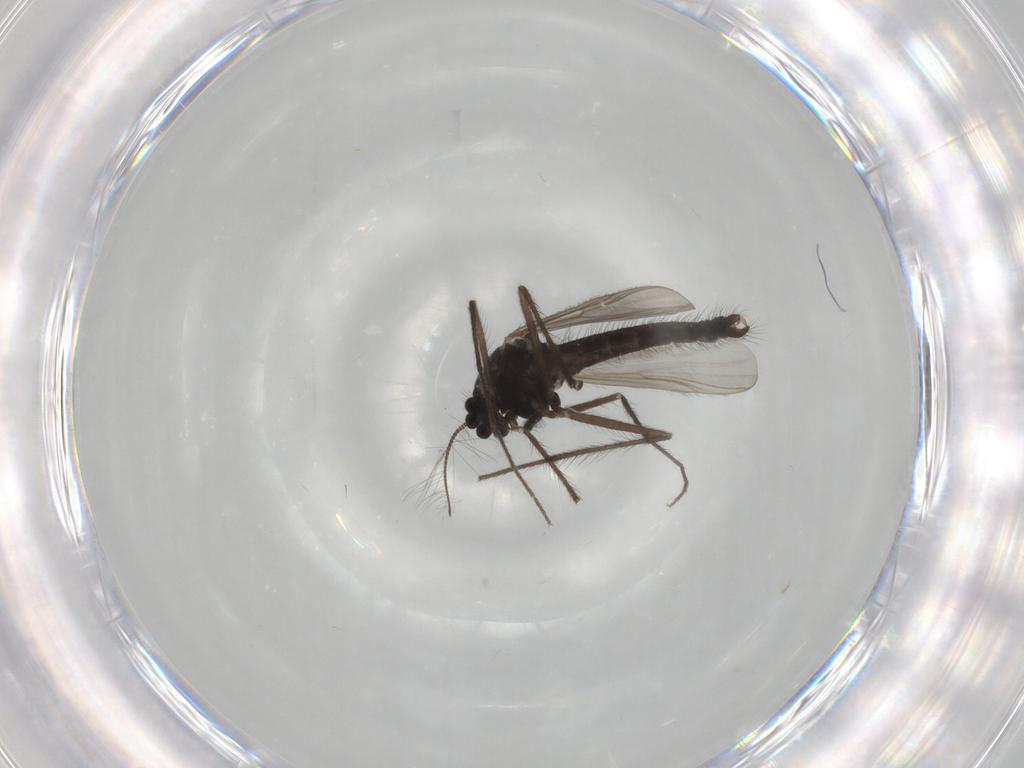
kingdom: Animalia
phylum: Arthropoda
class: Insecta
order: Diptera
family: Chironomidae
